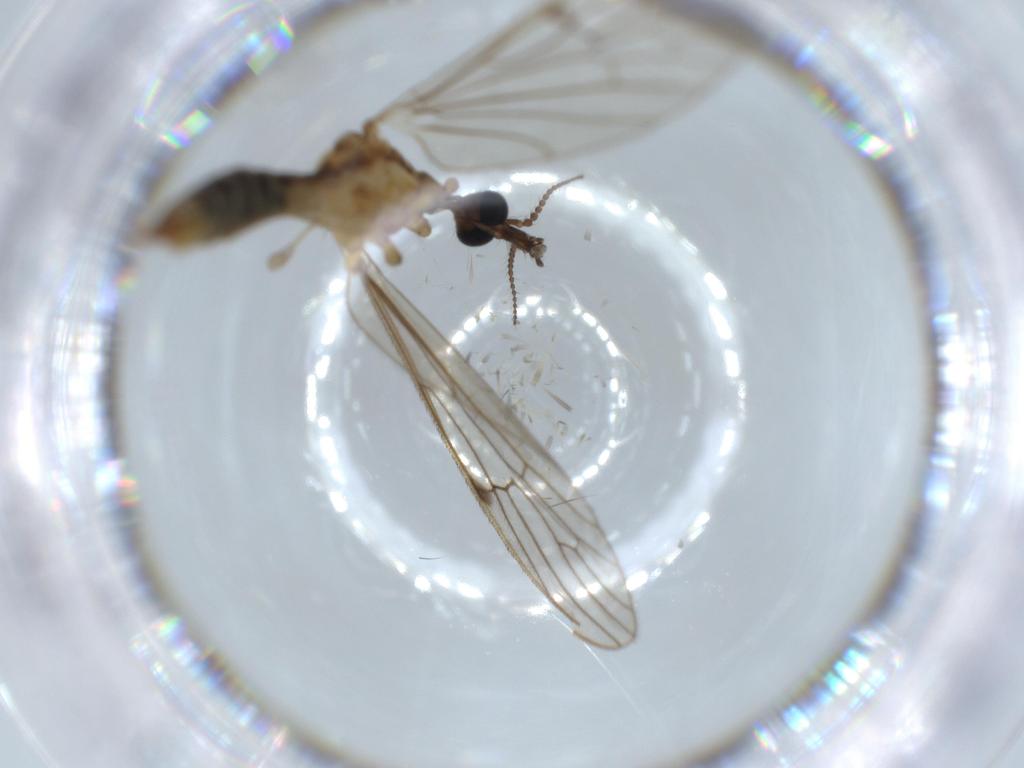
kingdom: Animalia
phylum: Arthropoda
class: Insecta
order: Diptera
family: Limoniidae
